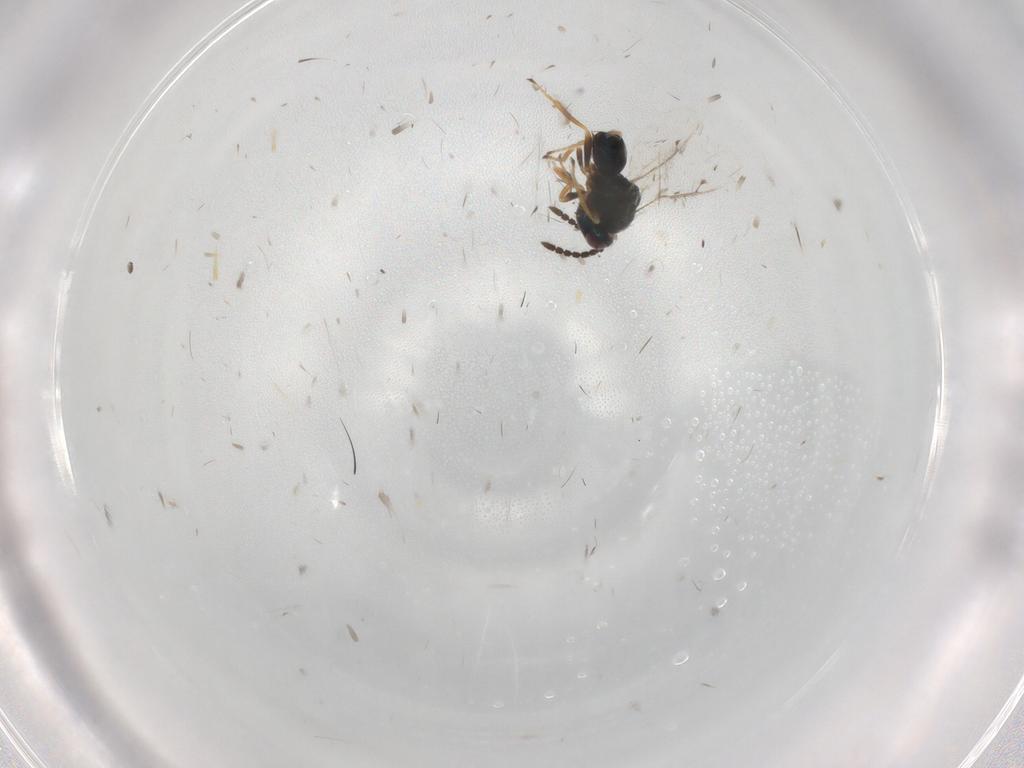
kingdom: Animalia
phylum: Arthropoda
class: Insecta
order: Hymenoptera
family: Pteromalidae
